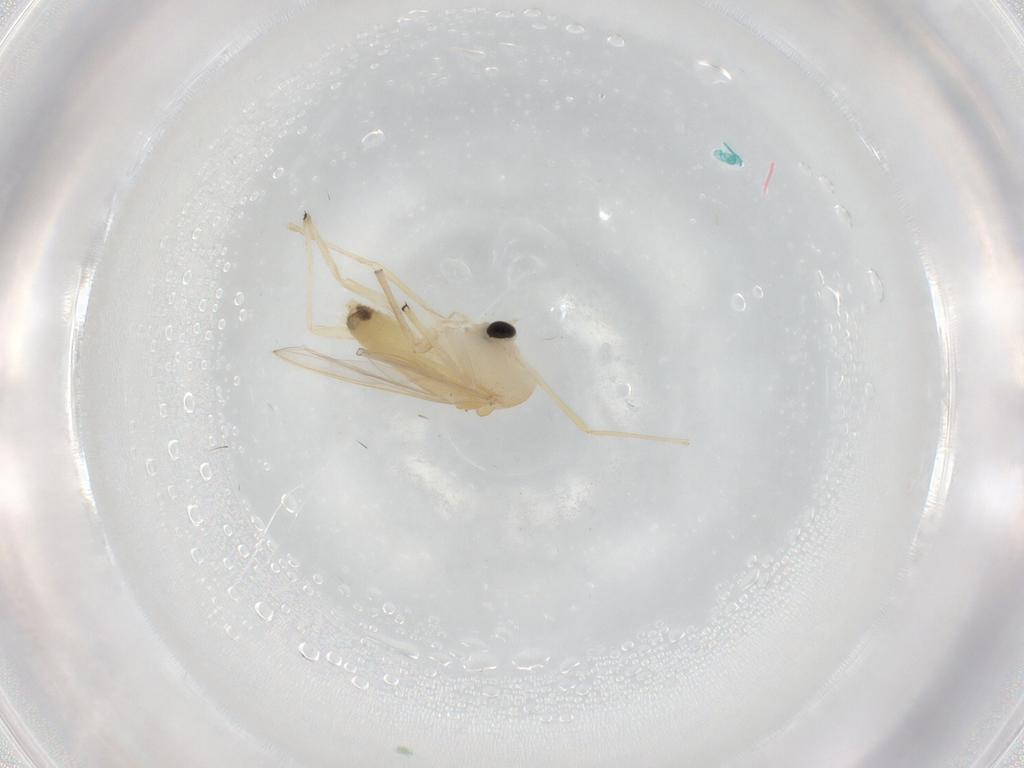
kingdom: Animalia
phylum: Arthropoda
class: Insecta
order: Diptera
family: Chironomidae
